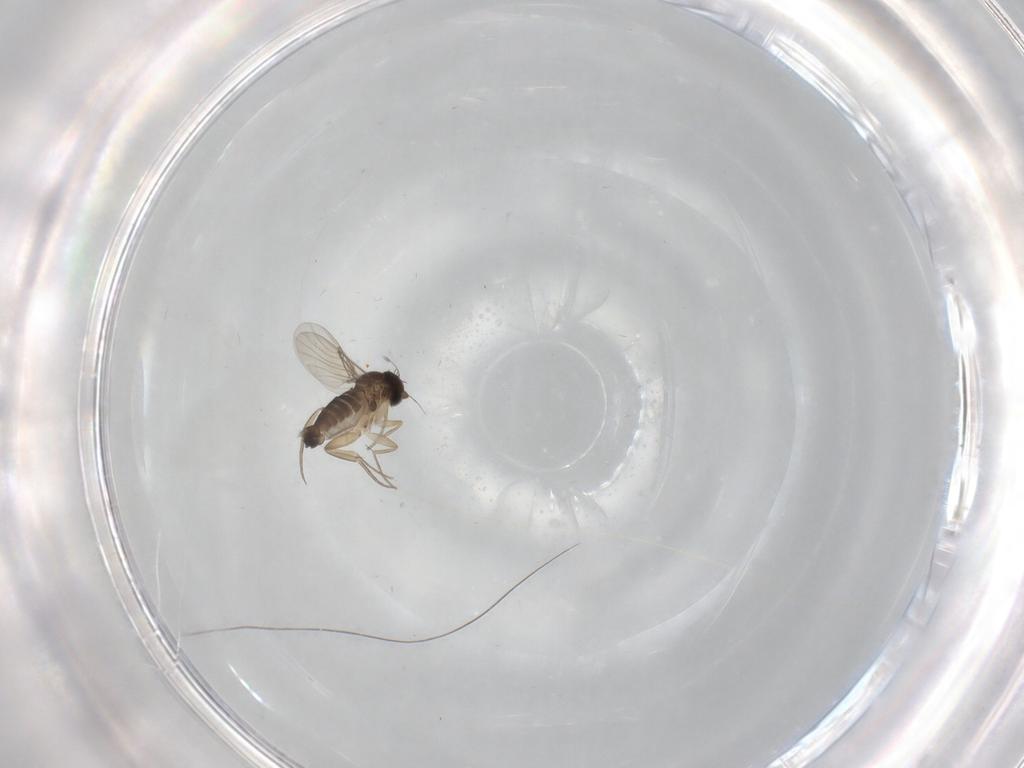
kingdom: Animalia
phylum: Arthropoda
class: Insecta
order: Diptera
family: Phoridae
